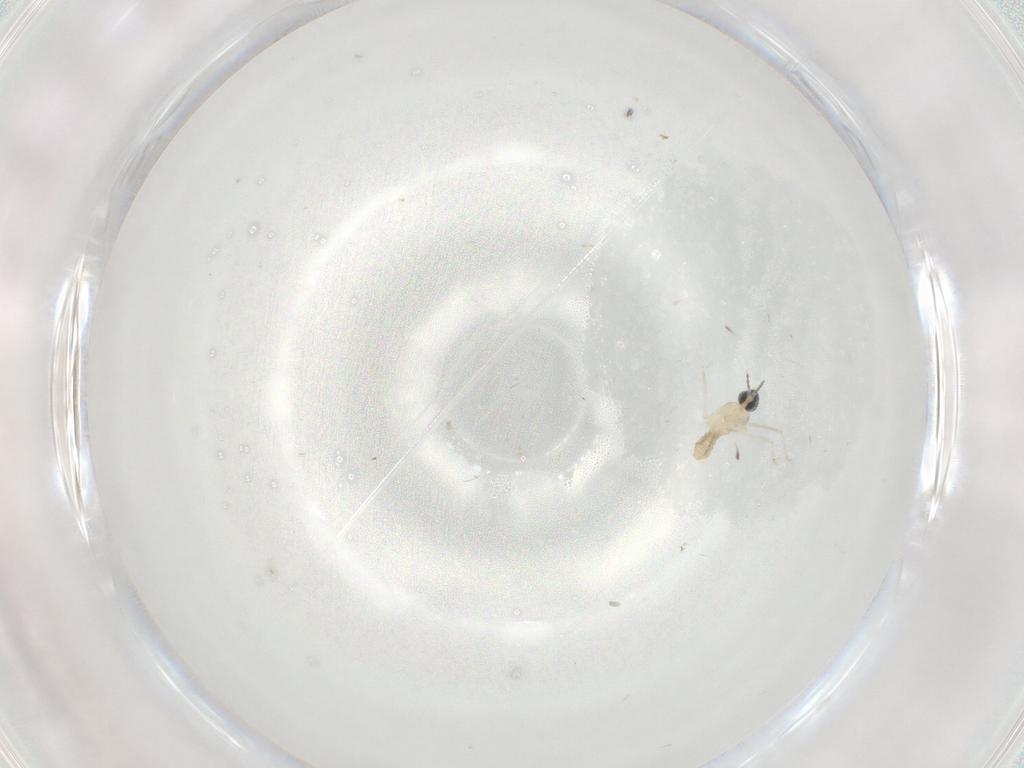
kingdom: Animalia
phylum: Arthropoda
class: Insecta
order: Diptera
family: Cecidomyiidae
